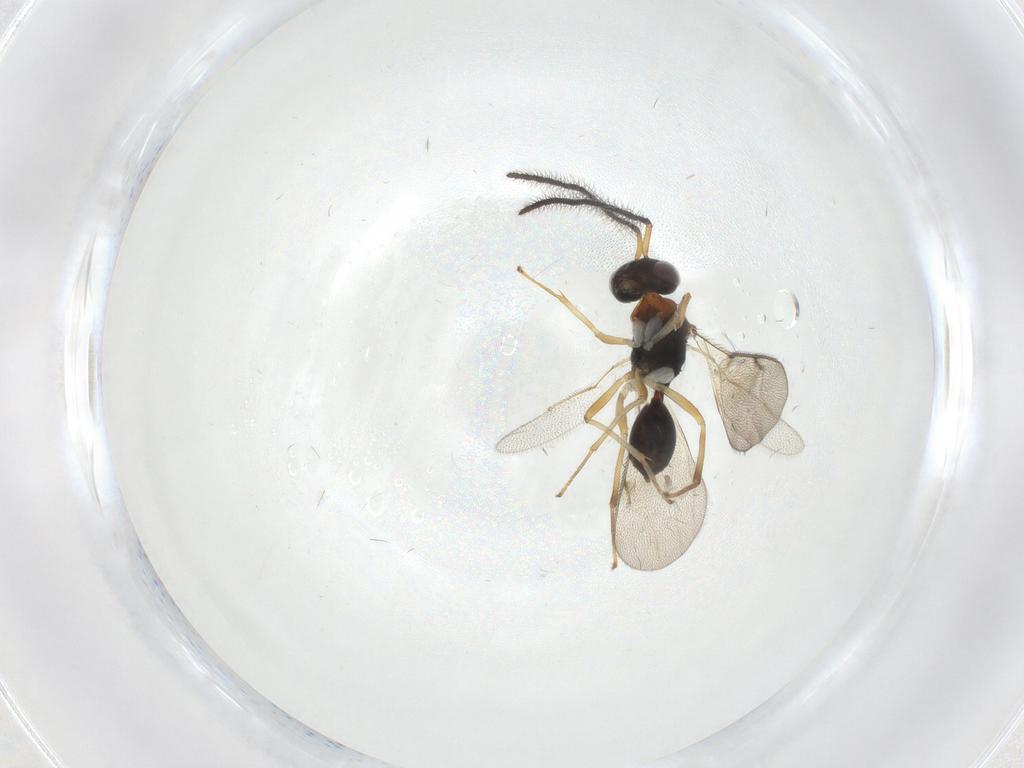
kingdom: Animalia
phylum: Arthropoda
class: Insecta
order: Hymenoptera
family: Diparidae
